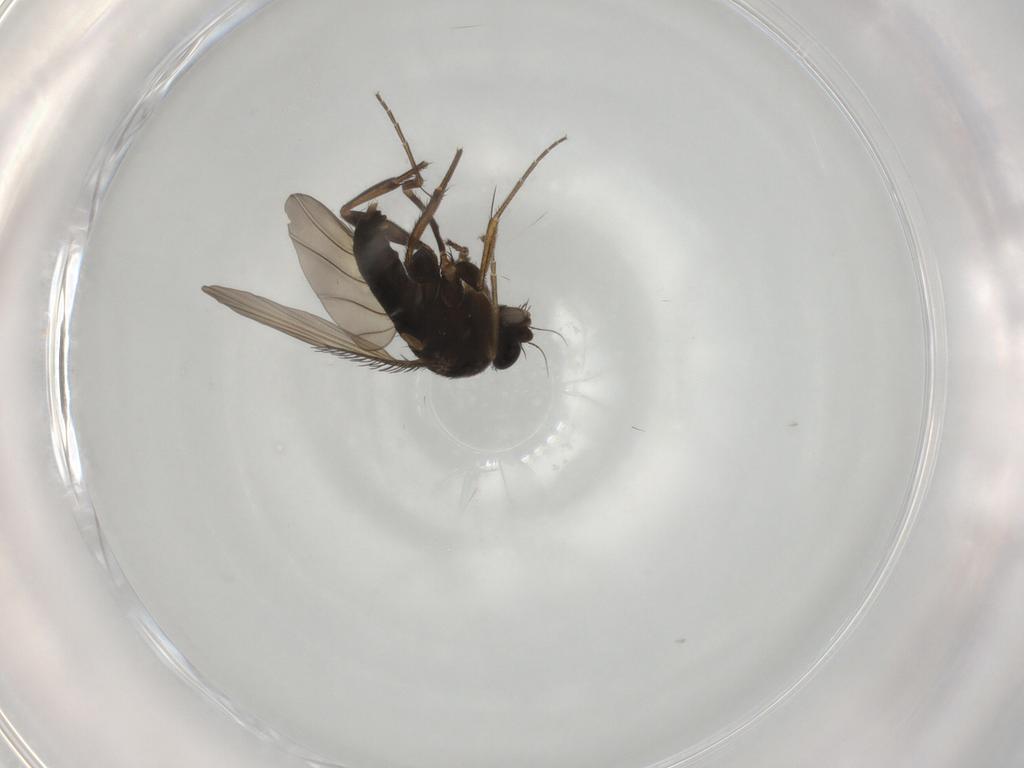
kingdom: Animalia
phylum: Arthropoda
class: Insecta
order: Diptera
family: Phoridae
